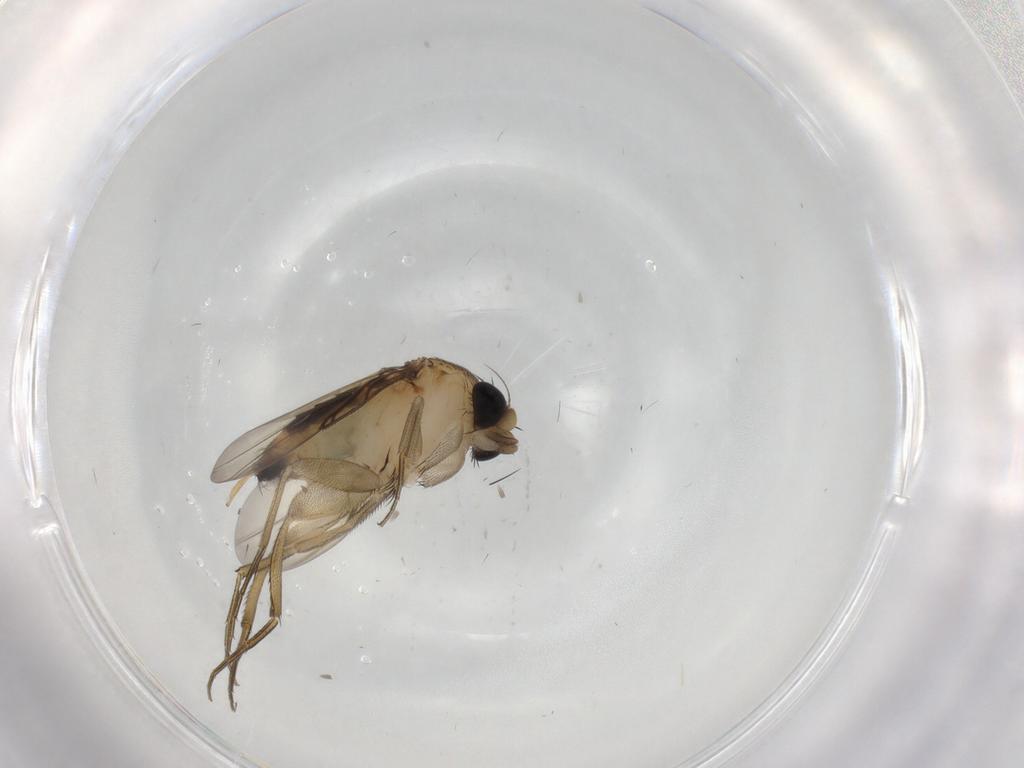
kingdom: Animalia
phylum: Arthropoda
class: Insecta
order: Diptera
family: Phoridae
